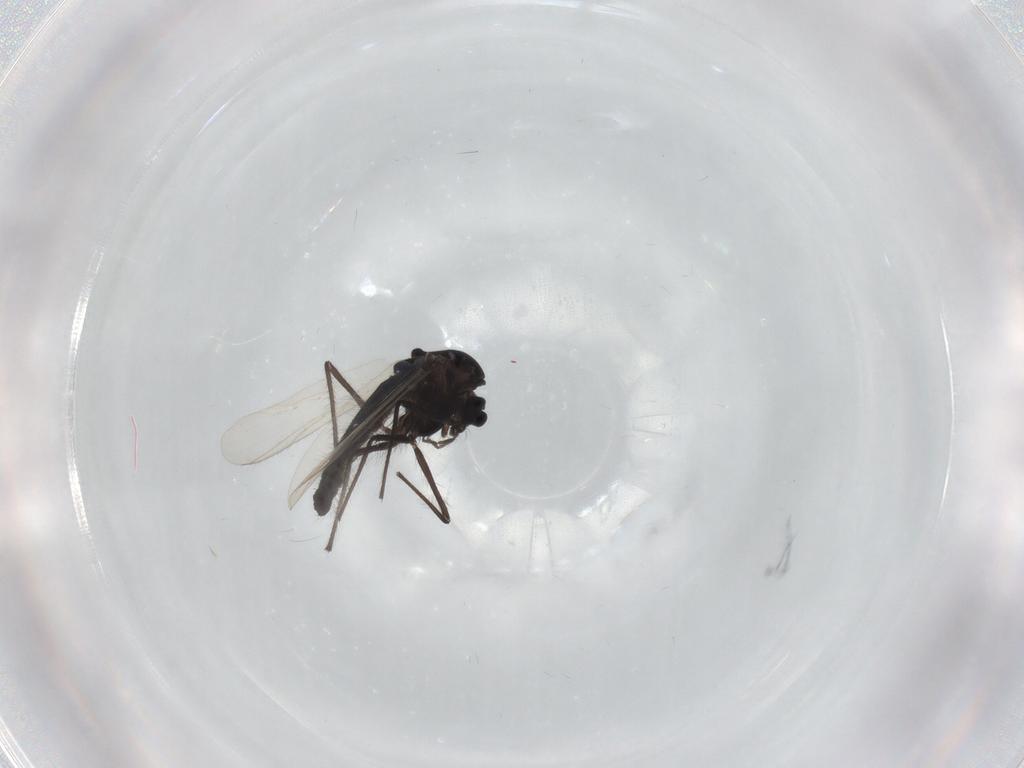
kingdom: Animalia
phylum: Arthropoda
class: Insecta
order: Diptera
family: Chironomidae
